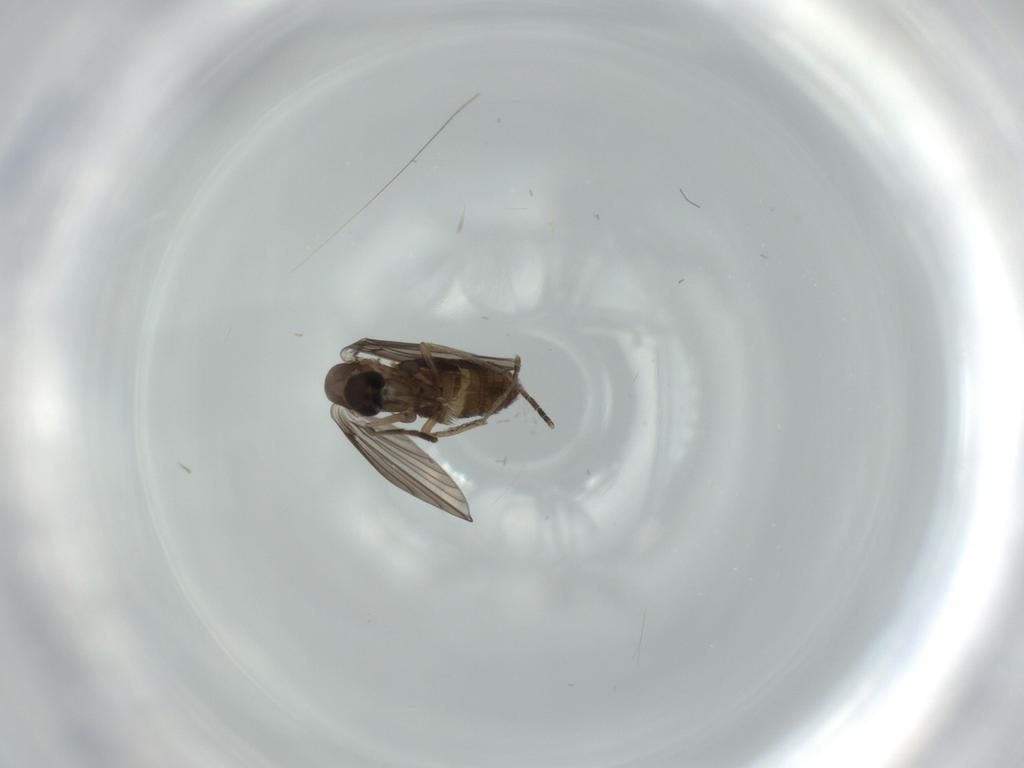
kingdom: Animalia
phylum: Arthropoda
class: Insecta
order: Diptera
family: Psychodidae
